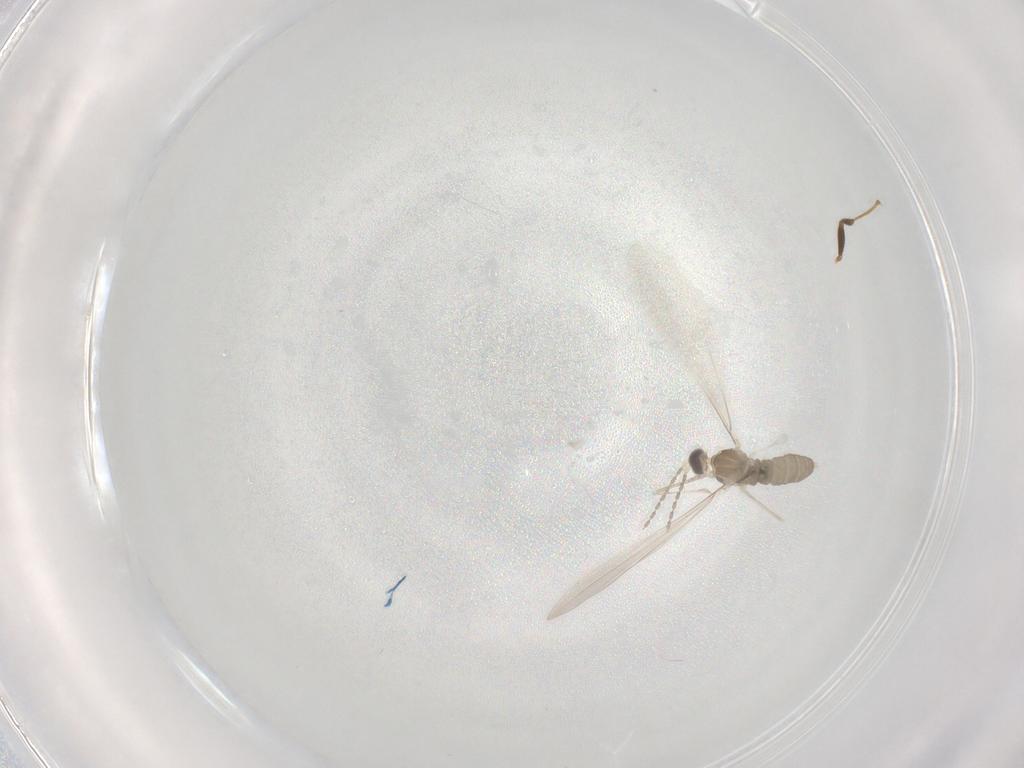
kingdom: Animalia
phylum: Arthropoda
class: Insecta
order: Diptera
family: Cecidomyiidae
